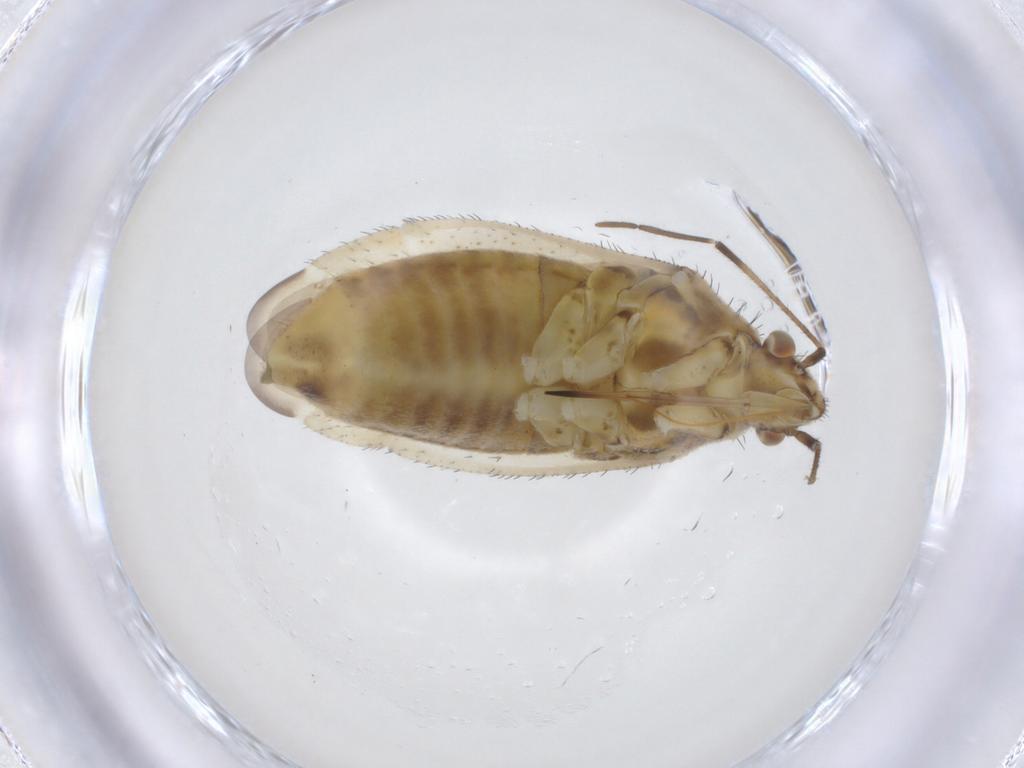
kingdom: Animalia
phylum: Arthropoda
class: Insecta
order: Hemiptera
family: Miridae
